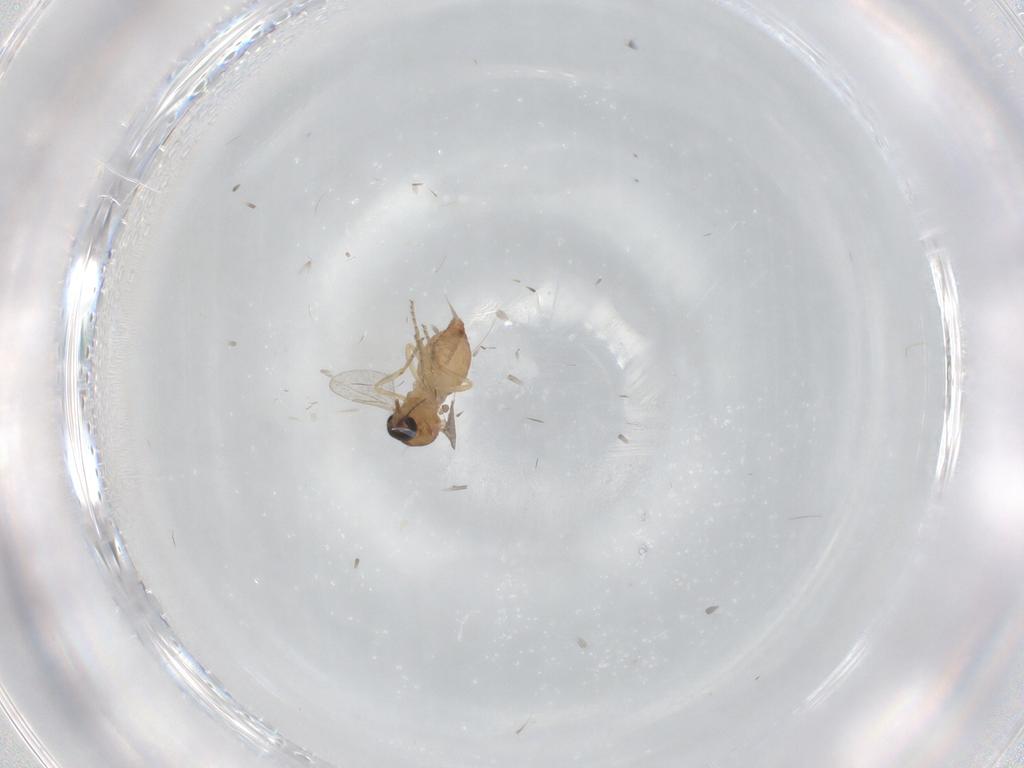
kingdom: Animalia
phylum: Arthropoda
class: Insecta
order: Diptera
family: Ceratopogonidae
